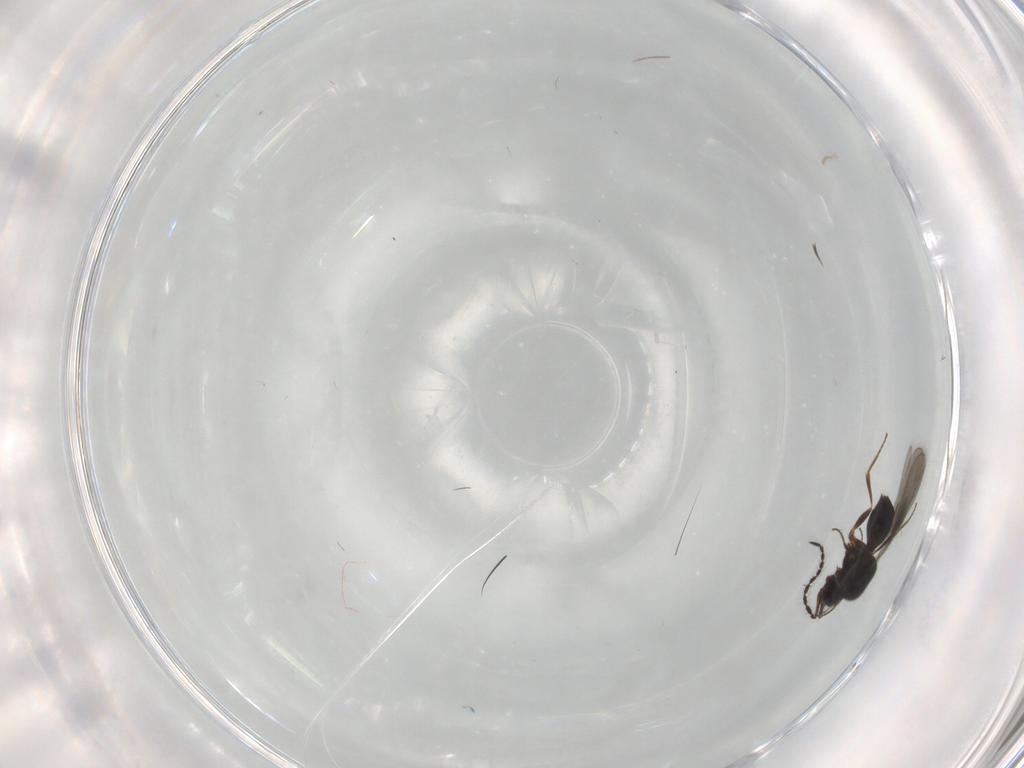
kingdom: Animalia
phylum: Arthropoda
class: Insecta
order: Hymenoptera
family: Ceraphronidae
